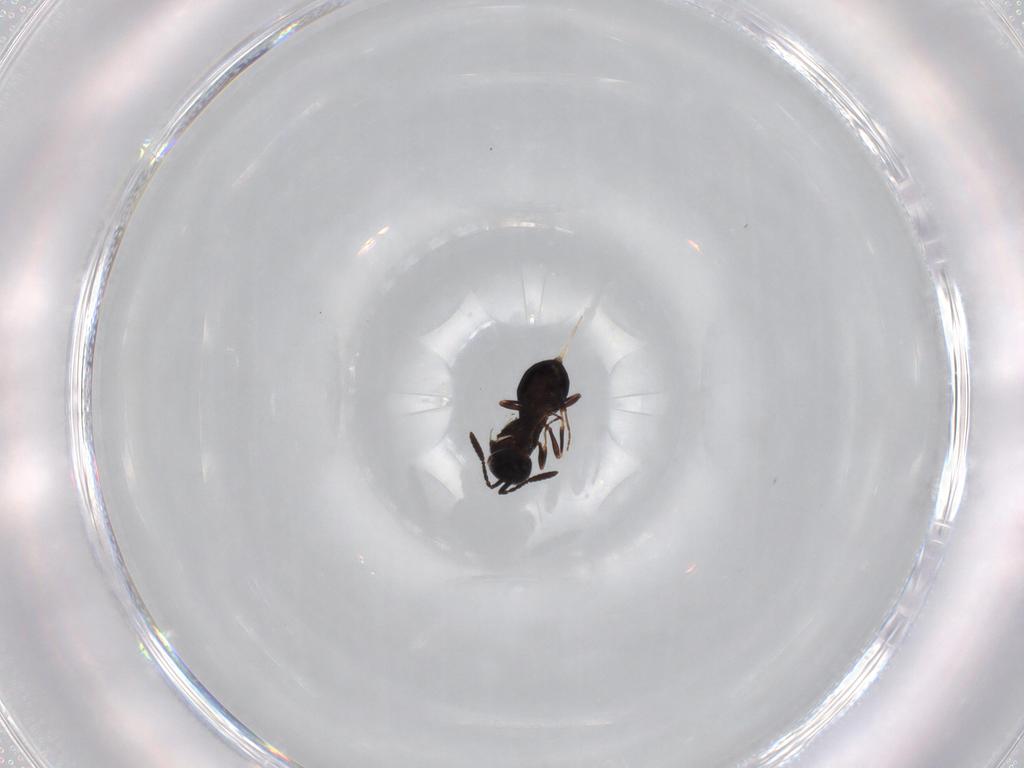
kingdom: Animalia
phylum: Arthropoda
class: Insecta
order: Hymenoptera
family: Scelionidae
